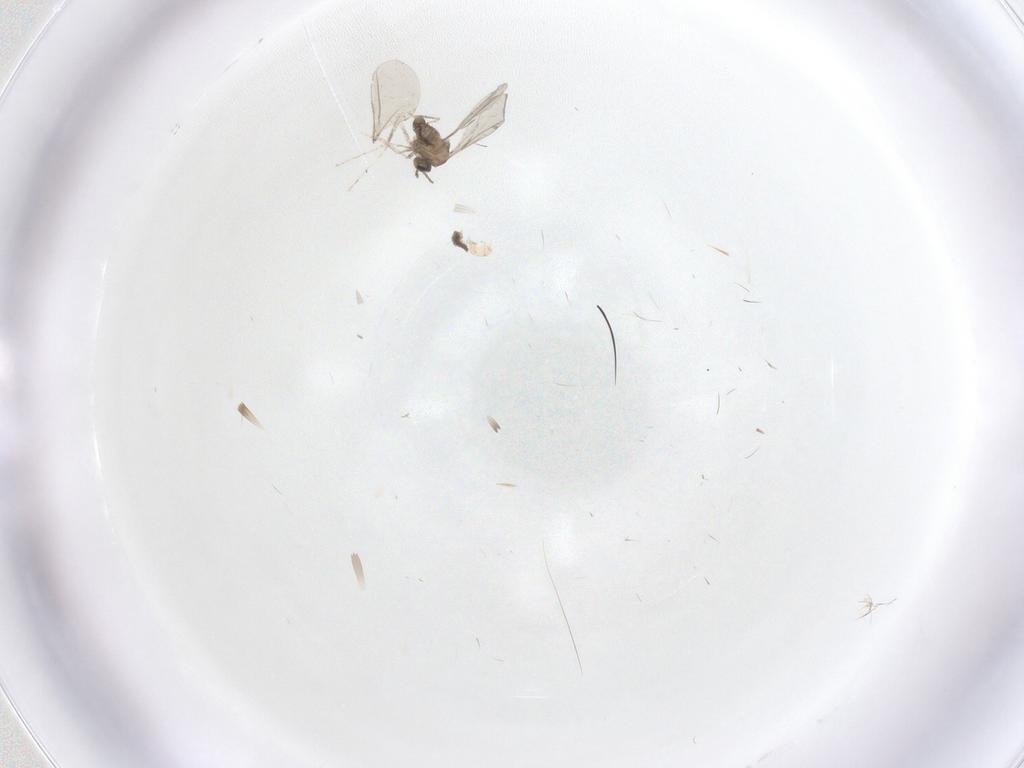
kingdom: Animalia
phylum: Arthropoda
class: Insecta
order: Diptera
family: Cecidomyiidae
